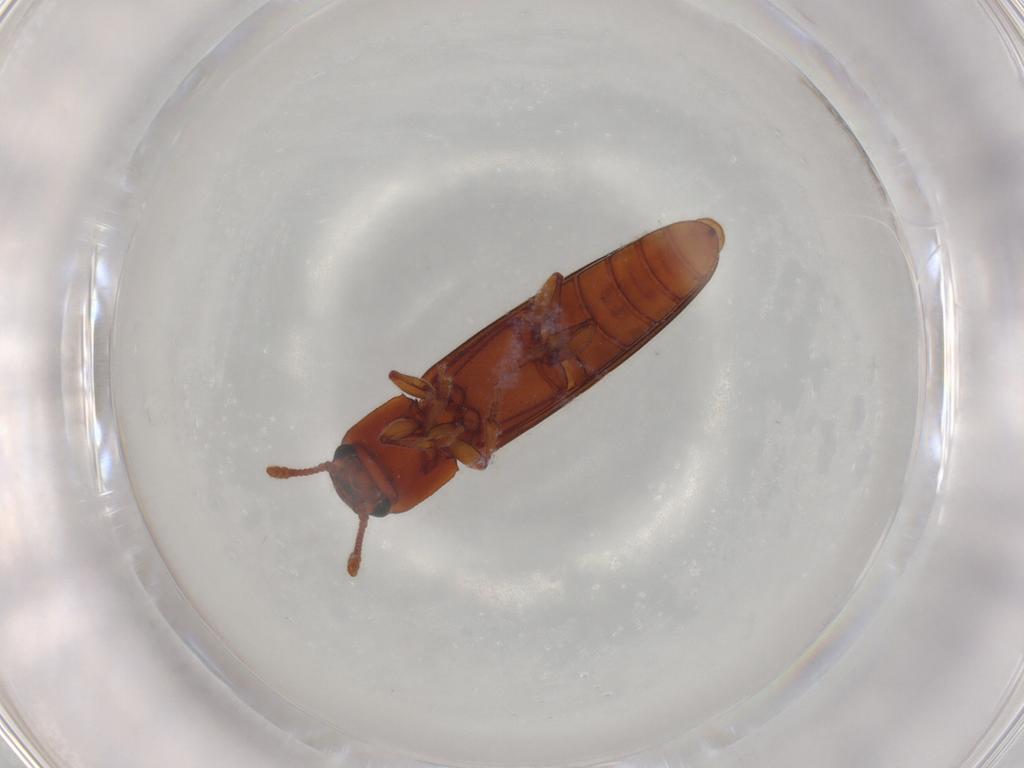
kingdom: Animalia
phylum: Arthropoda
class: Insecta
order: Coleoptera
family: Erotylidae
